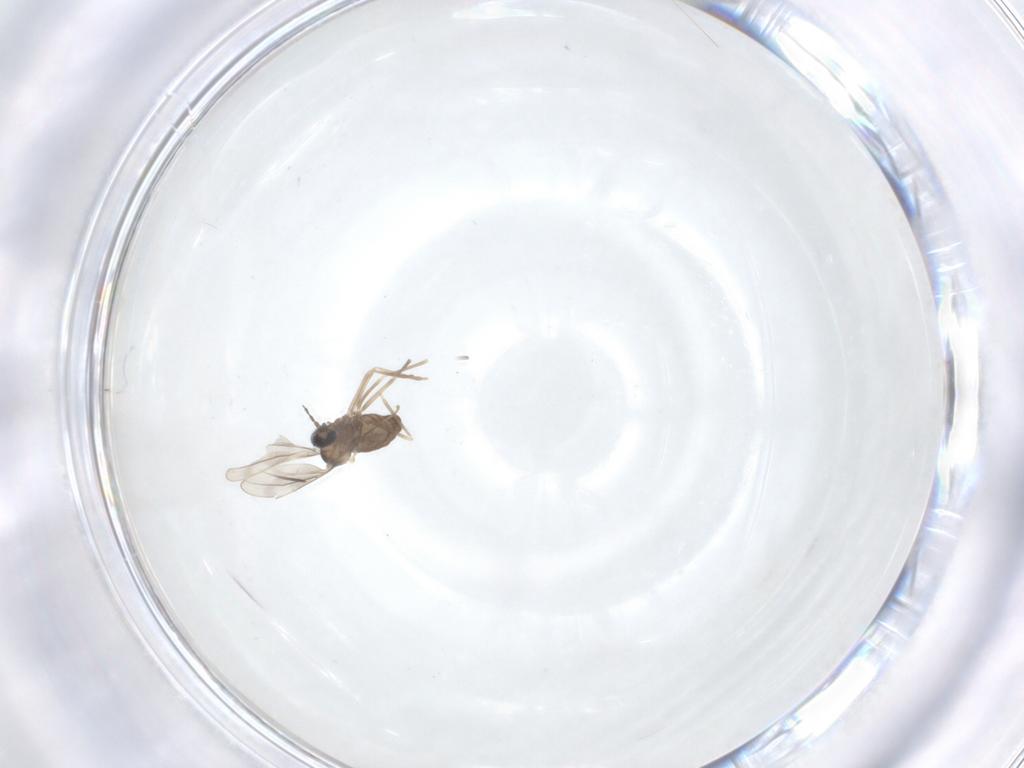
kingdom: Animalia
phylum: Arthropoda
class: Insecta
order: Diptera
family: Cecidomyiidae
